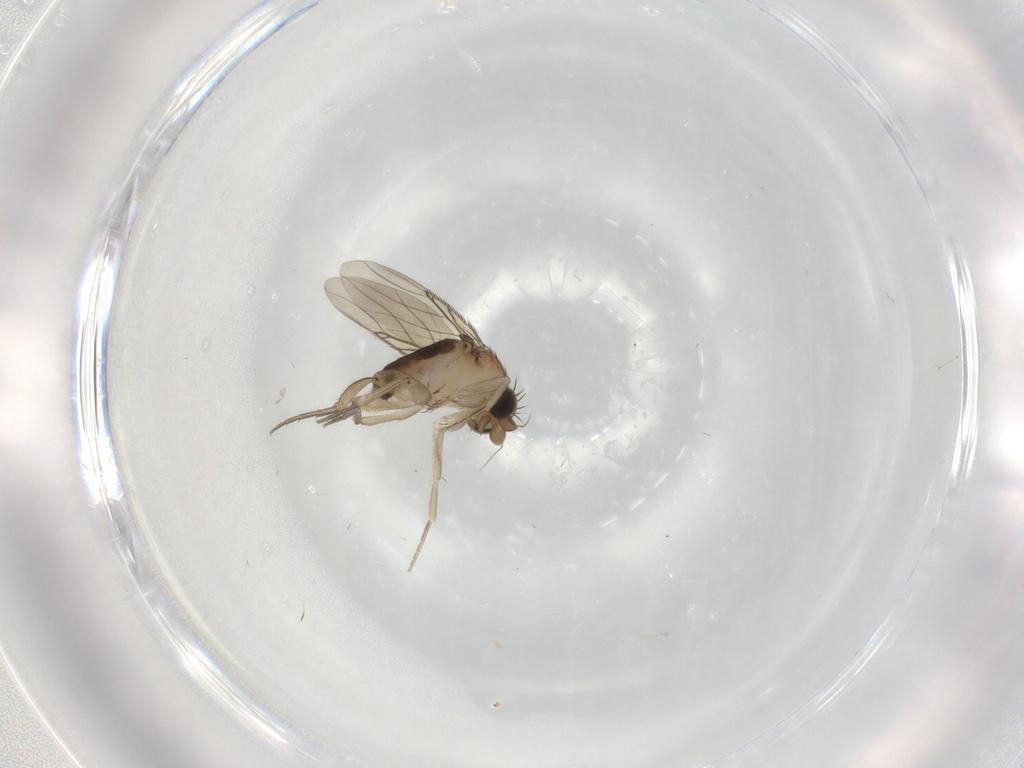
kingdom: Animalia
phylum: Arthropoda
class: Insecta
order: Diptera
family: Phoridae
